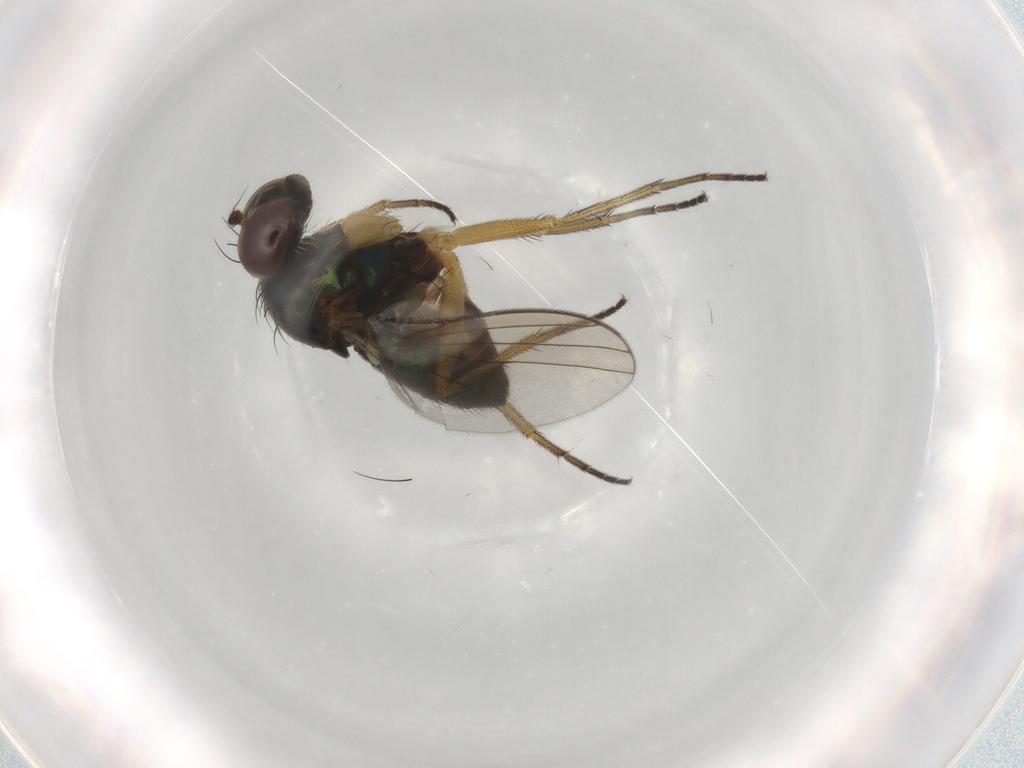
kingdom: Animalia
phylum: Arthropoda
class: Insecta
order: Diptera
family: Dolichopodidae
